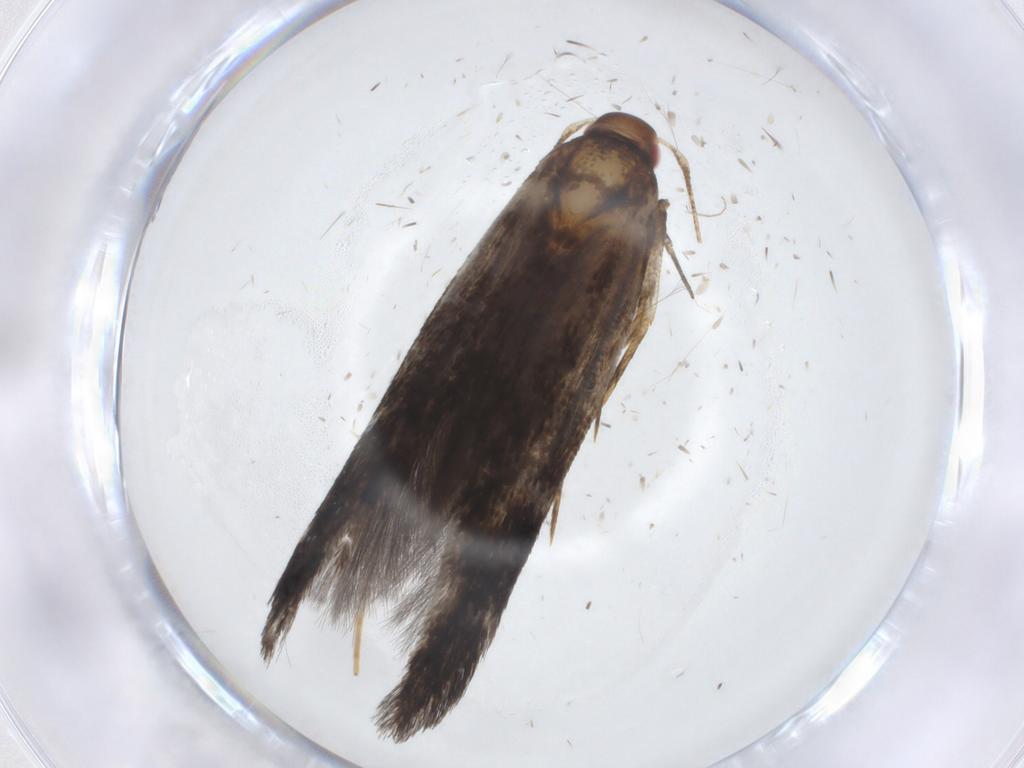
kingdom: Animalia
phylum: Arthropoda
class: Insecta
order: Lepidoptera
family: Cosmopterigidae
